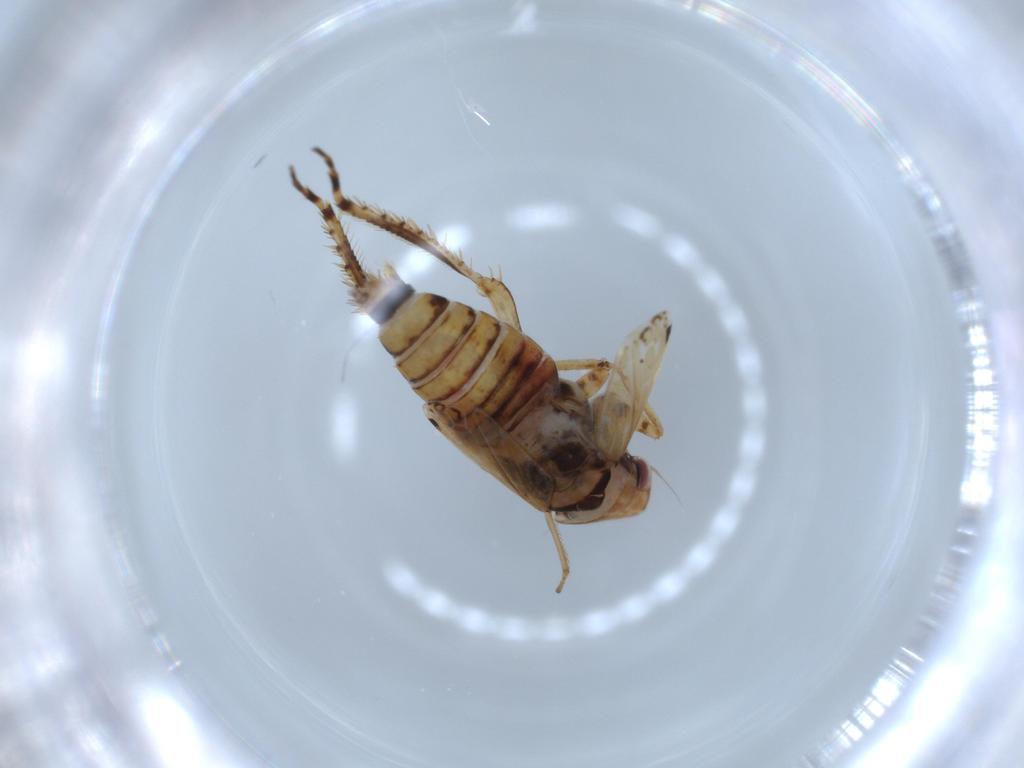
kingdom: Animalia
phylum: Arthropoda
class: Insecta
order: Hemiptera
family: Cicadellidae
